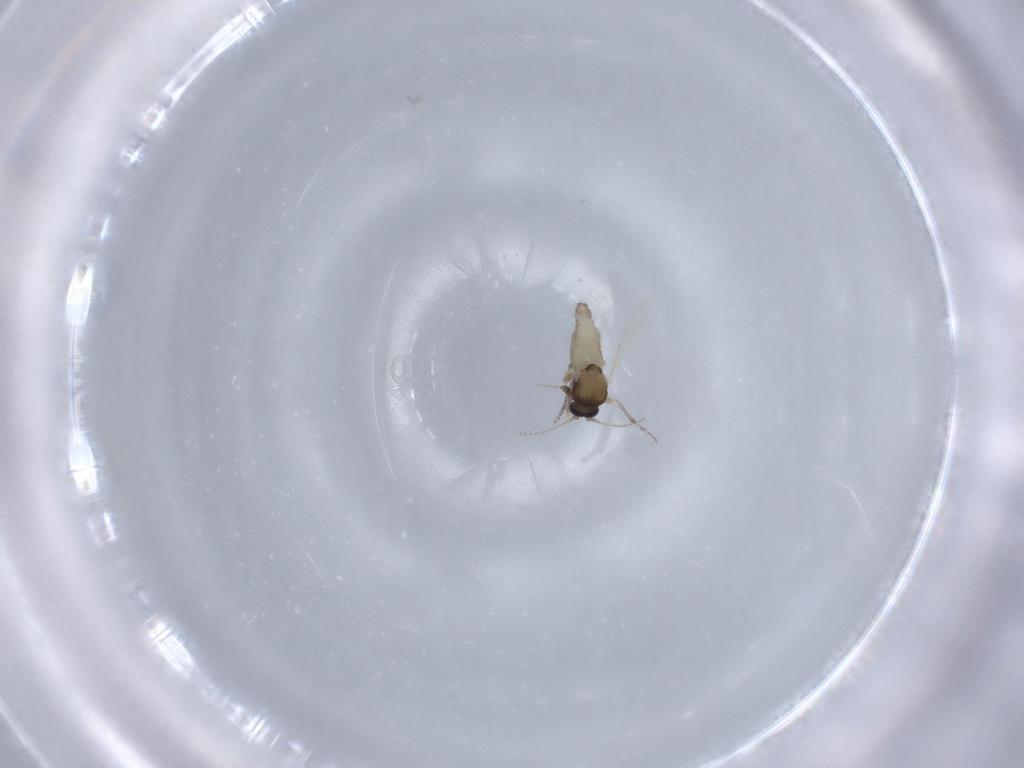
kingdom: Animalia
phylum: Arthropoda
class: Insecta
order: Diptera
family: Ceratopogonidae
